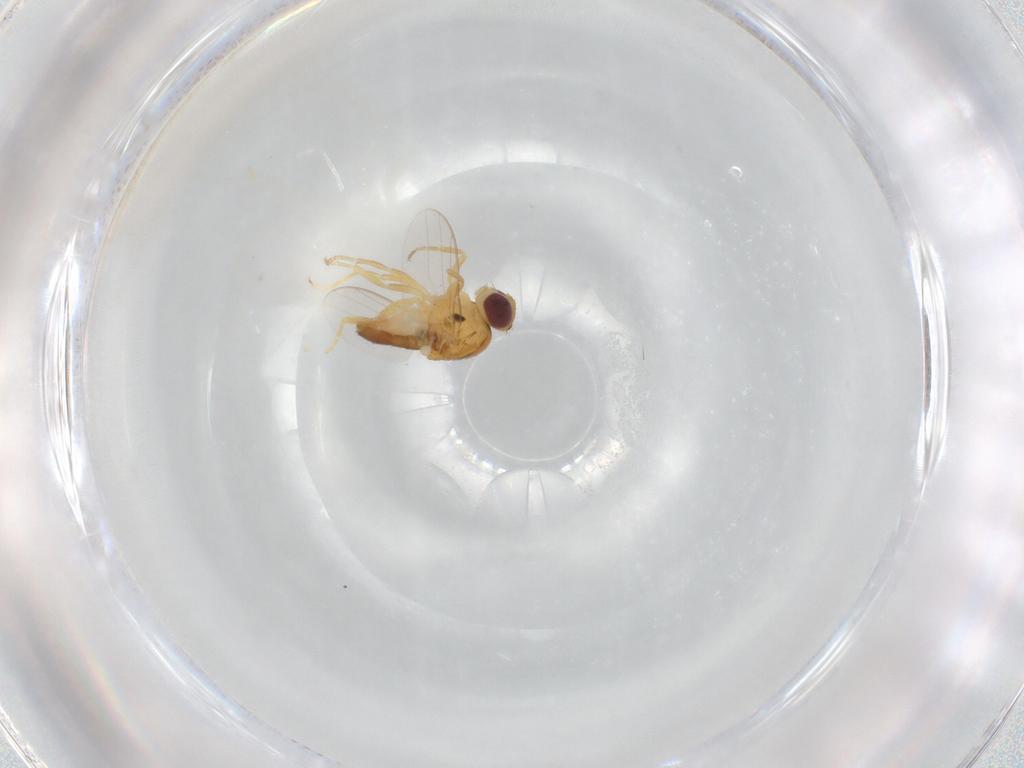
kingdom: Animalia
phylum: Arthropoda
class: Insecta
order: Diptera
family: Chloropidae
